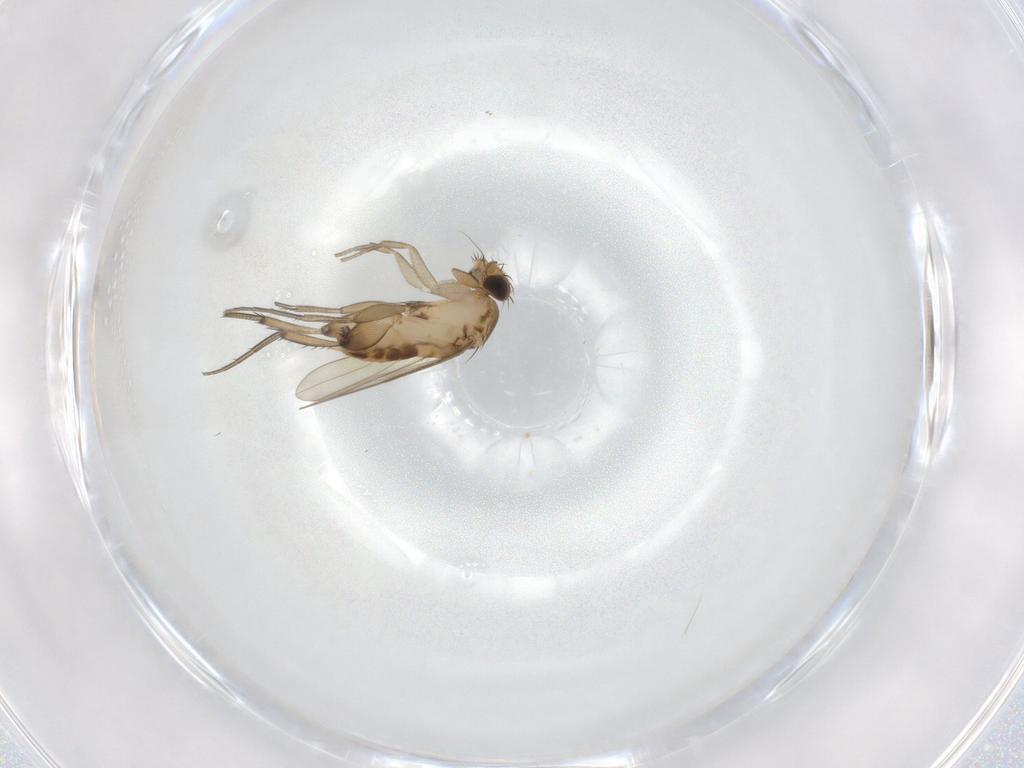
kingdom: Animalia
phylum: Arthropoda
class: Insecta
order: Diptera
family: Phoridae
